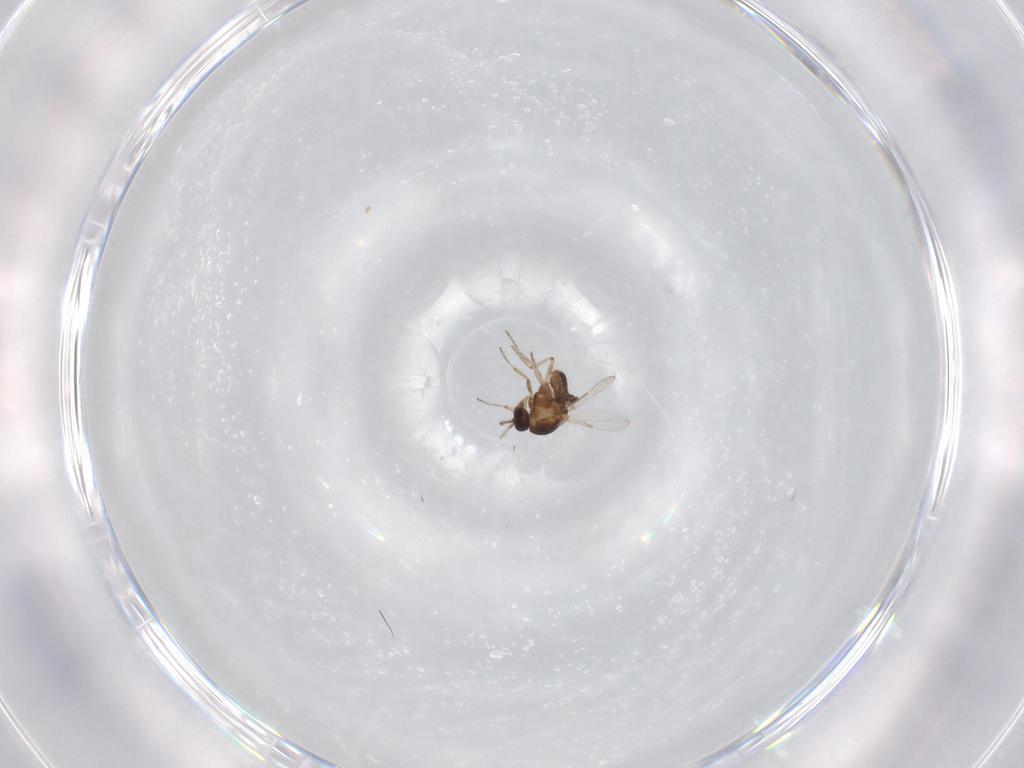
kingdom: Animalia
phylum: Arthropoda
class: Insecta
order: Diptera
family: Ceratopogonidae
